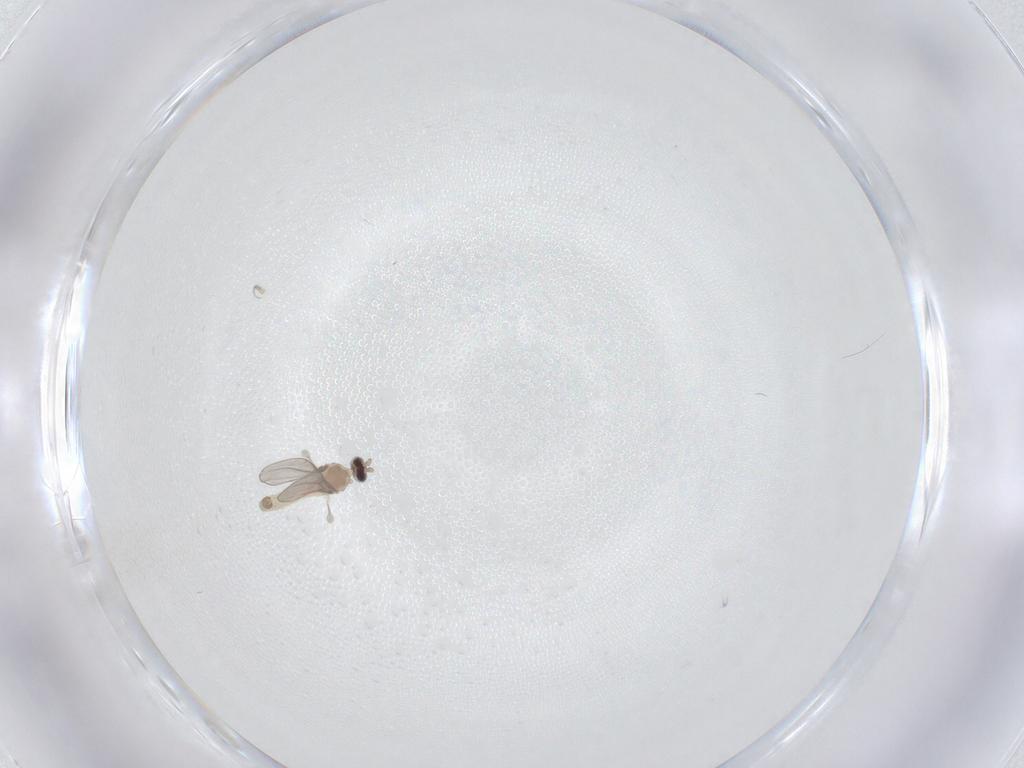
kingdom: Animalia
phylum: Arthropoda
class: Insecta
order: Diptera
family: Cecidomyiidae
